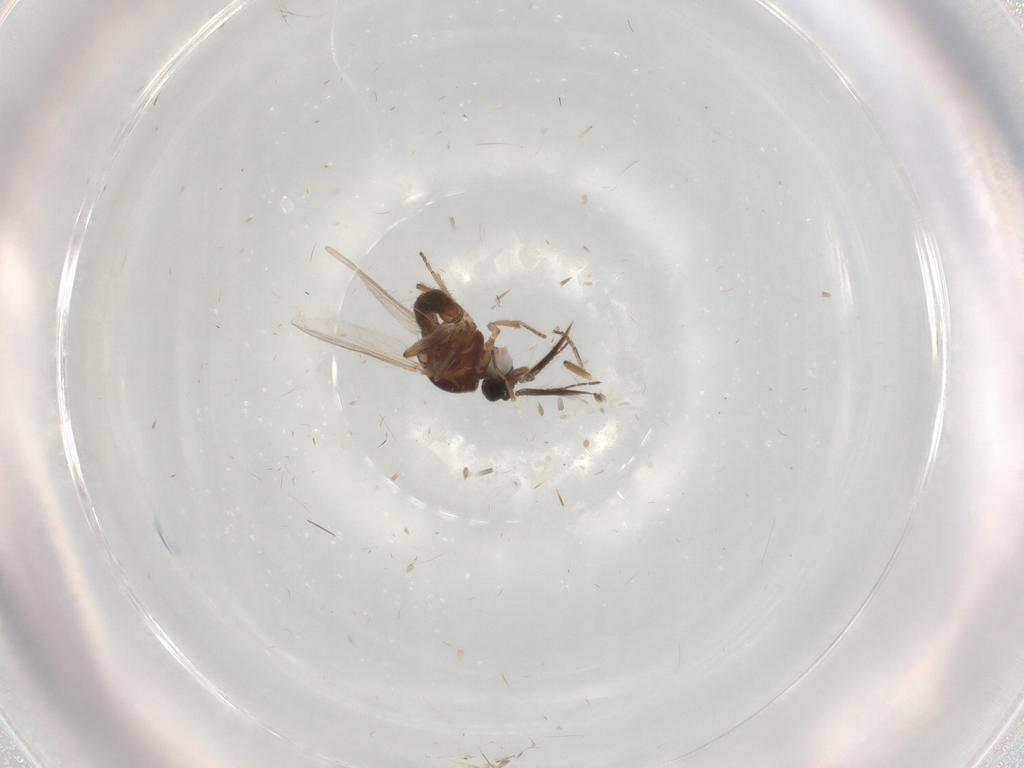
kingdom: Animalia
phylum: Arthropoda
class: Insecta
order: Diptera
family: Ceratopogonidae
